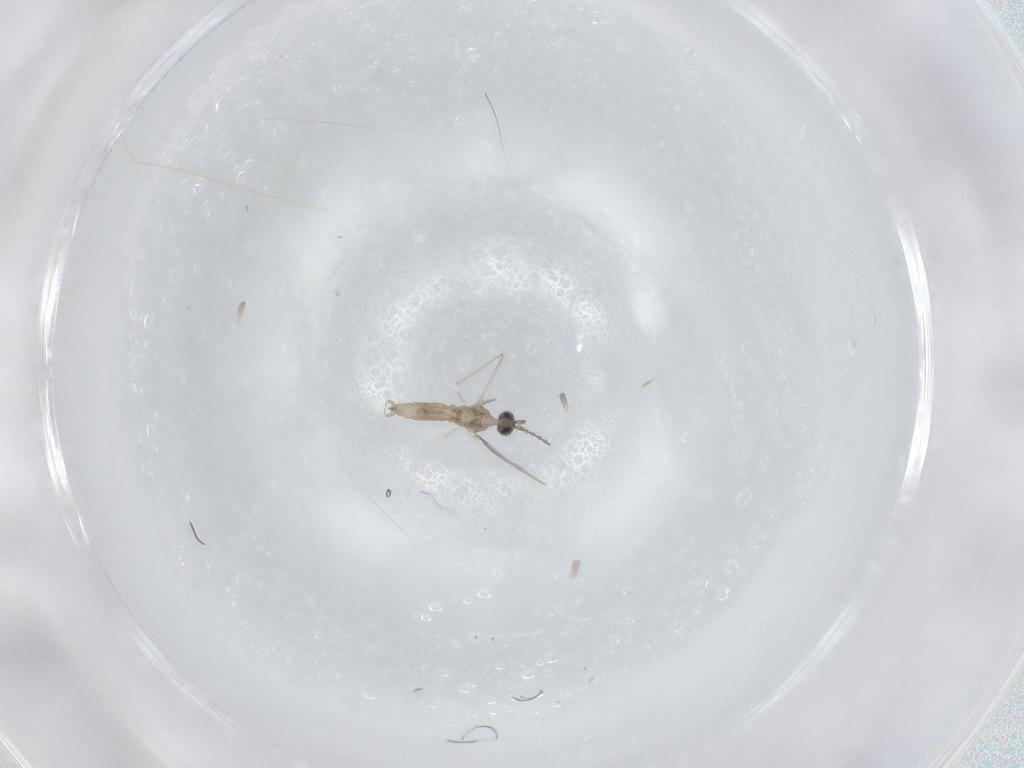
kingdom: Animalia
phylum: Arthropoda
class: Insecta
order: Diptera
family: Cecidomyiidae
